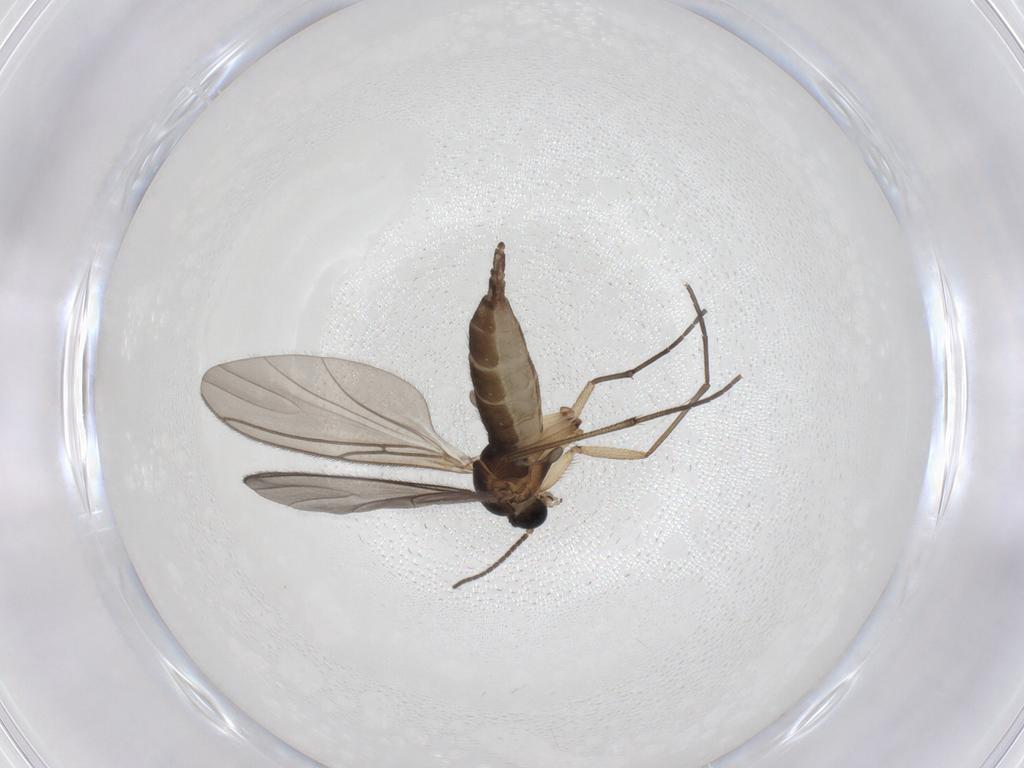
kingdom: Animalia
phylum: Arthropoda
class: Insecta
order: Diptera
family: Sciaridae
